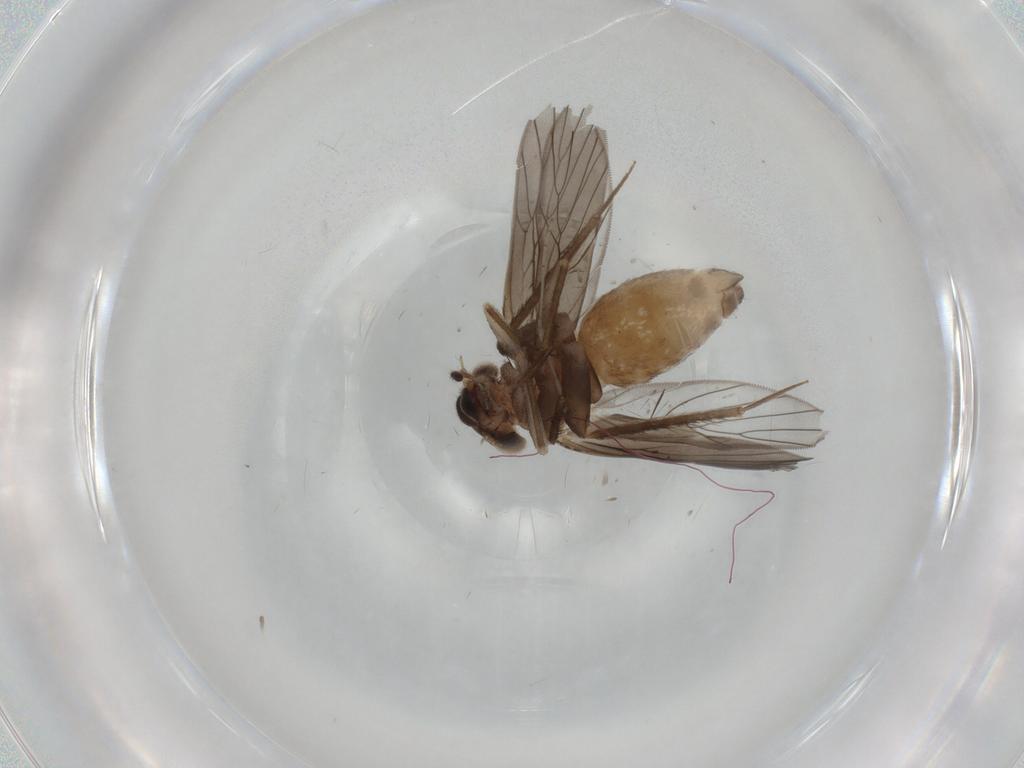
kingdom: Animalia
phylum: Arthropoda
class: Insecta
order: Psocodea
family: Lepidopsocidae
